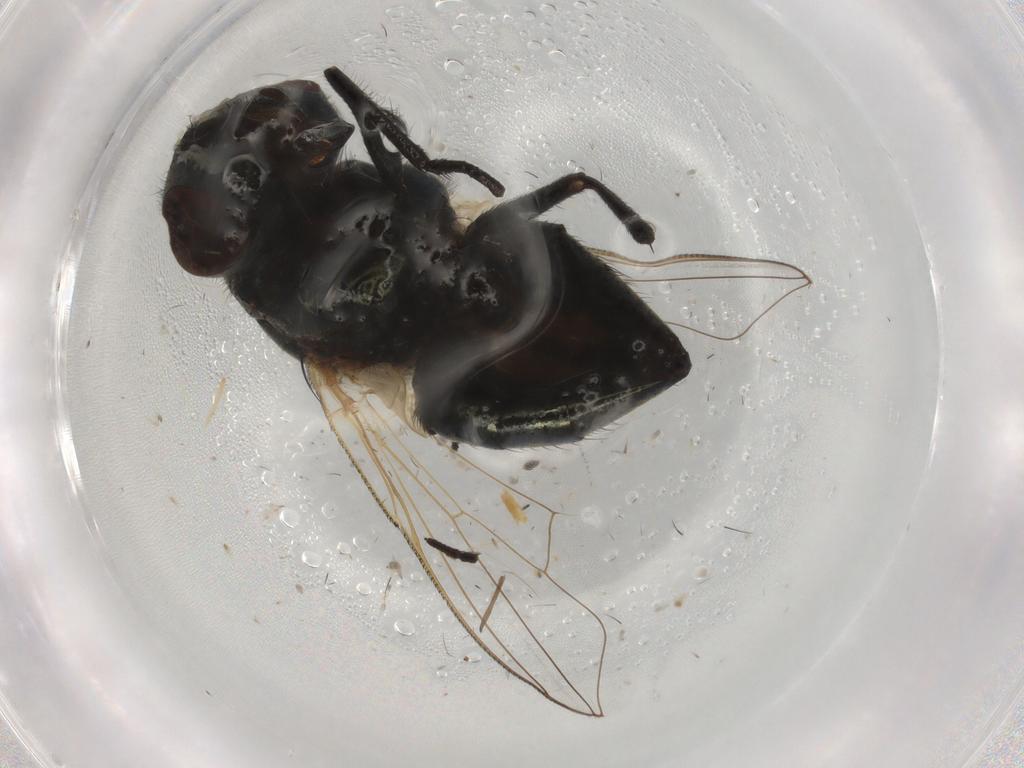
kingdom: Animalia
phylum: Arthropoda
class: Insecta
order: Diptera
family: Muscidae
